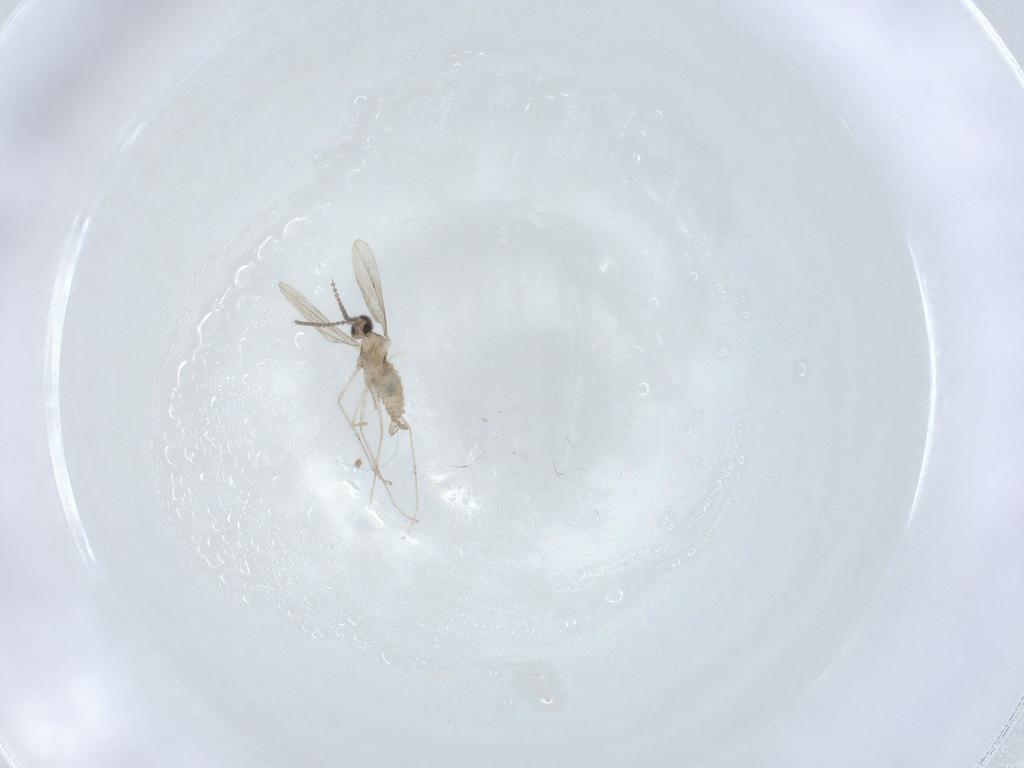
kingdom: Animalia
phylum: Arthropoda
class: Insecta
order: Diptera
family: Cecidomyiidae
